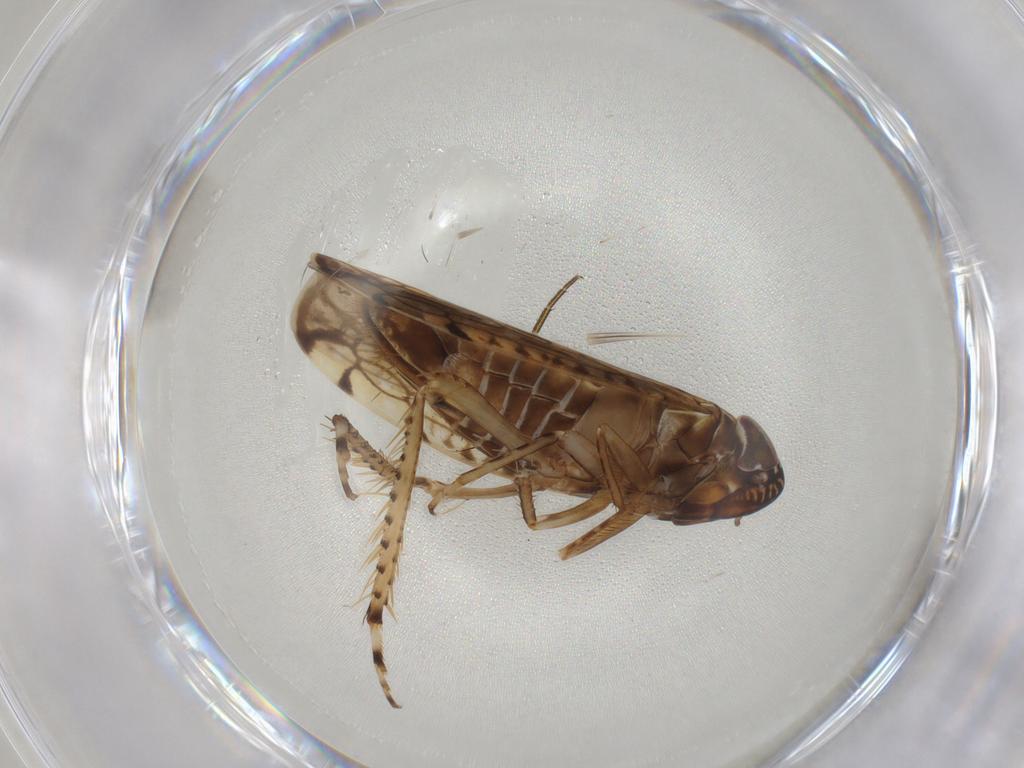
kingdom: Animalia
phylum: Arthropoda
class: Insecta
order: Hemiptera
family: Cicadellidae
